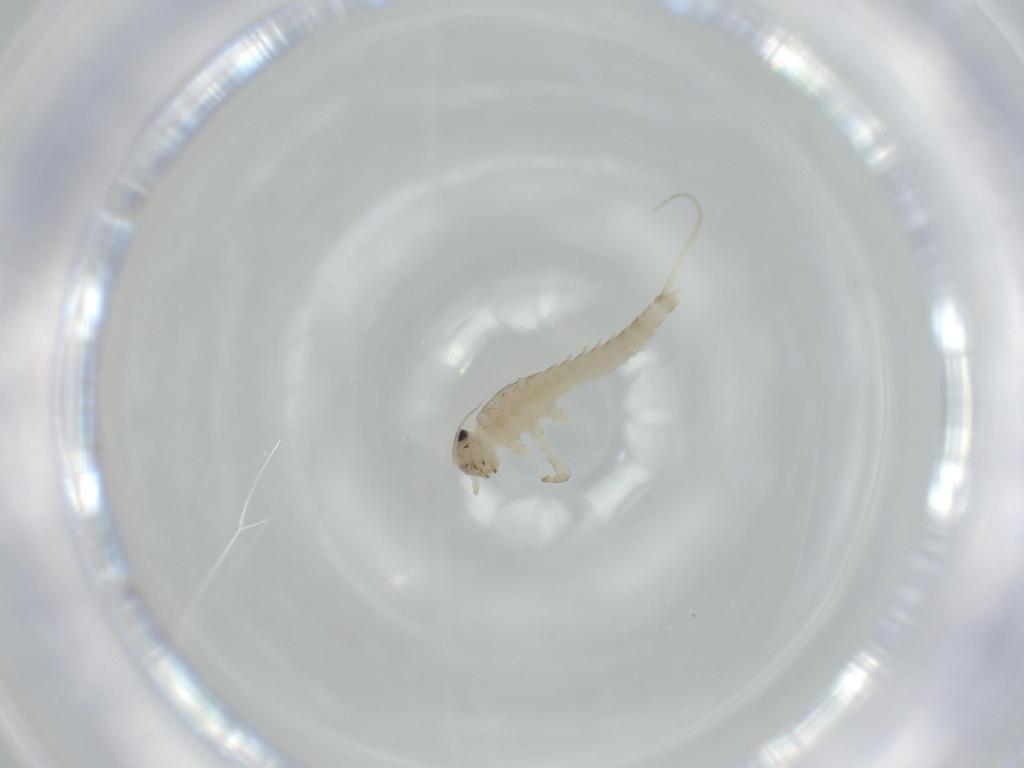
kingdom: Animalia
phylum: Arthropoda
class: Insecta
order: Ephemeroptera
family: Baetidae
